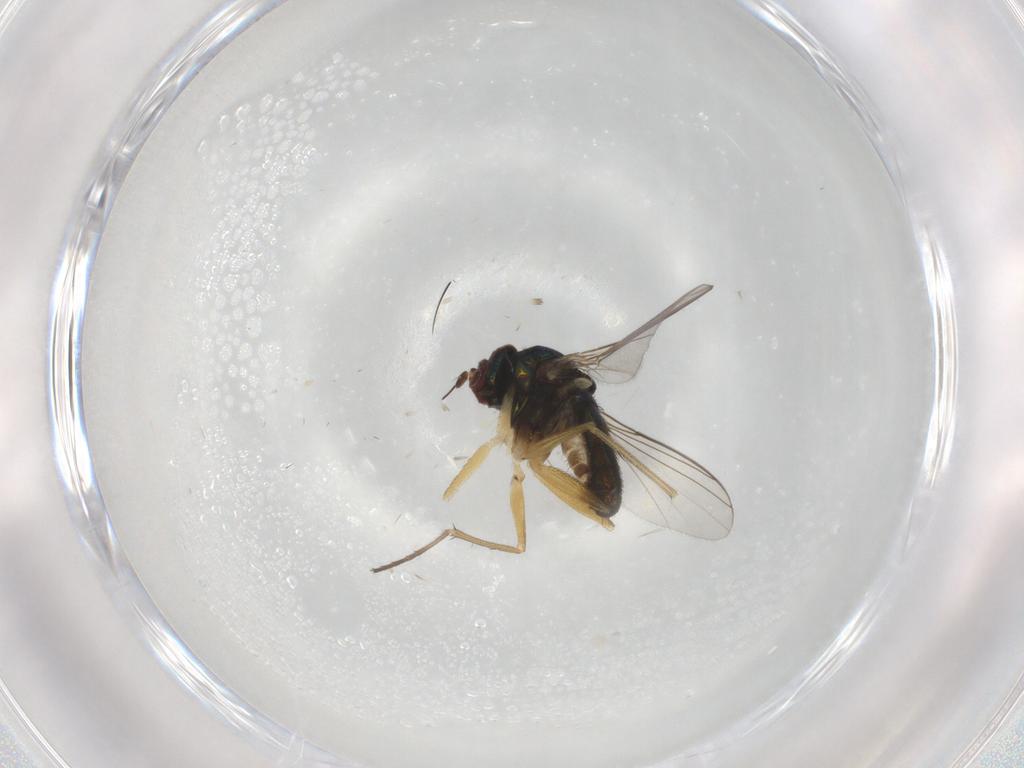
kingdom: Animalia
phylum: Arthropoda
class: Insecta
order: Diptera
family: Dolichopodidae
